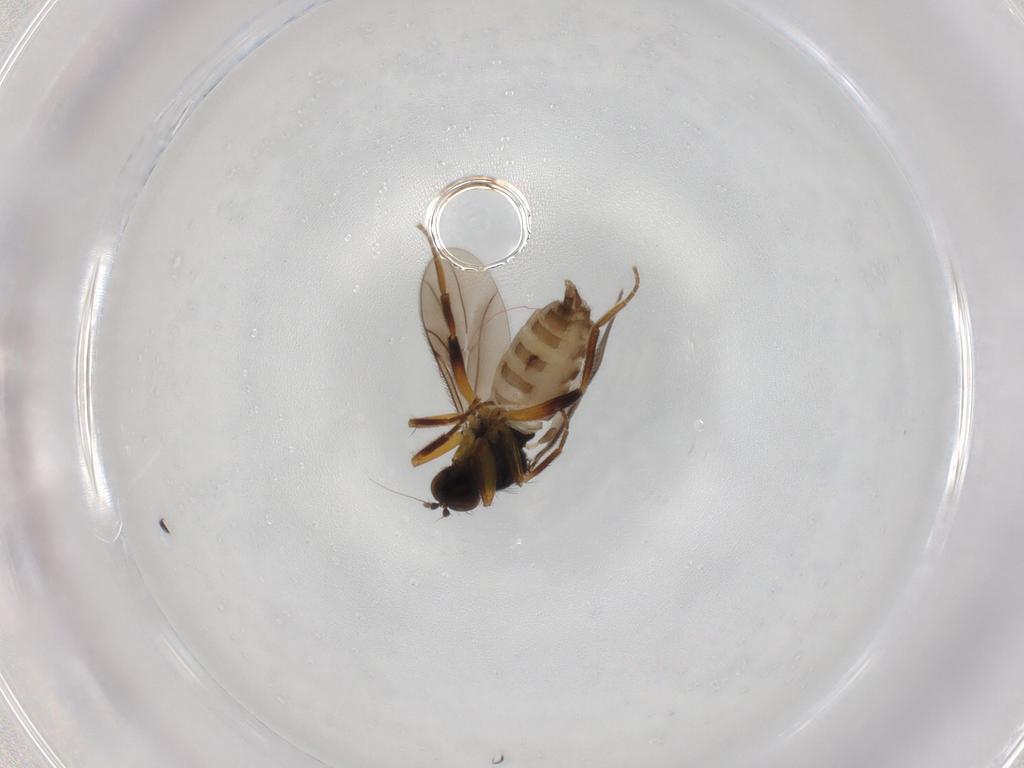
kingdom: Animalia
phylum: Arthropoda
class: Insecta
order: Diptera
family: Hybotidae
